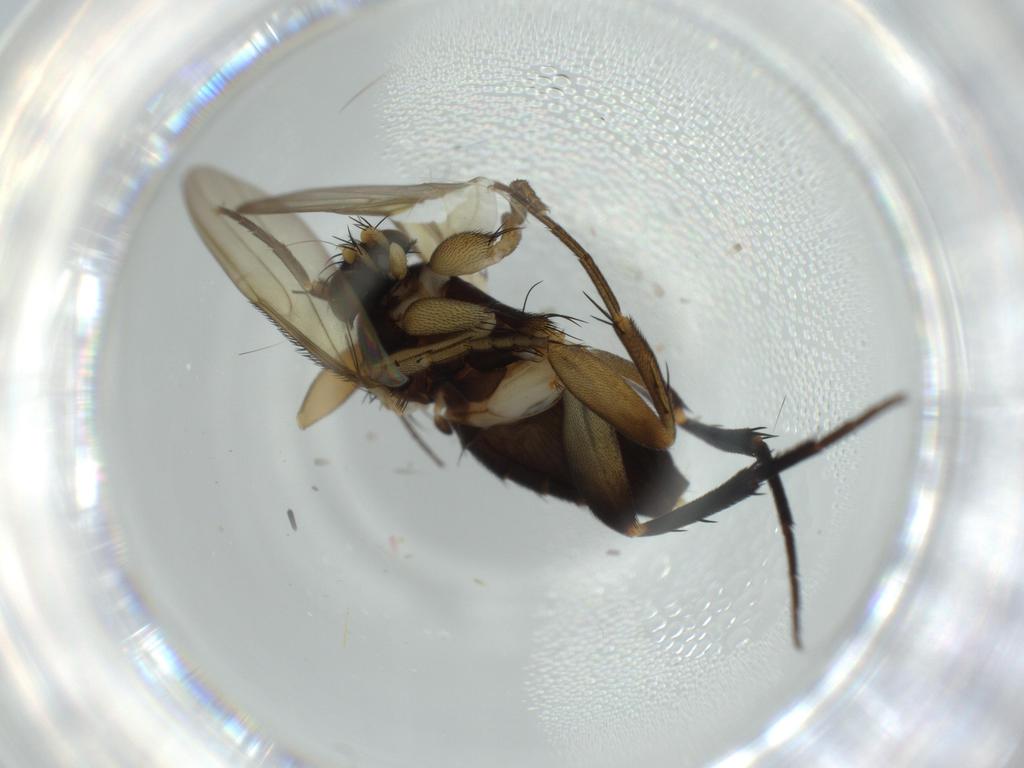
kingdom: Animalia
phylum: Arthropoda
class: Insecta
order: Diptera
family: Phoridae
